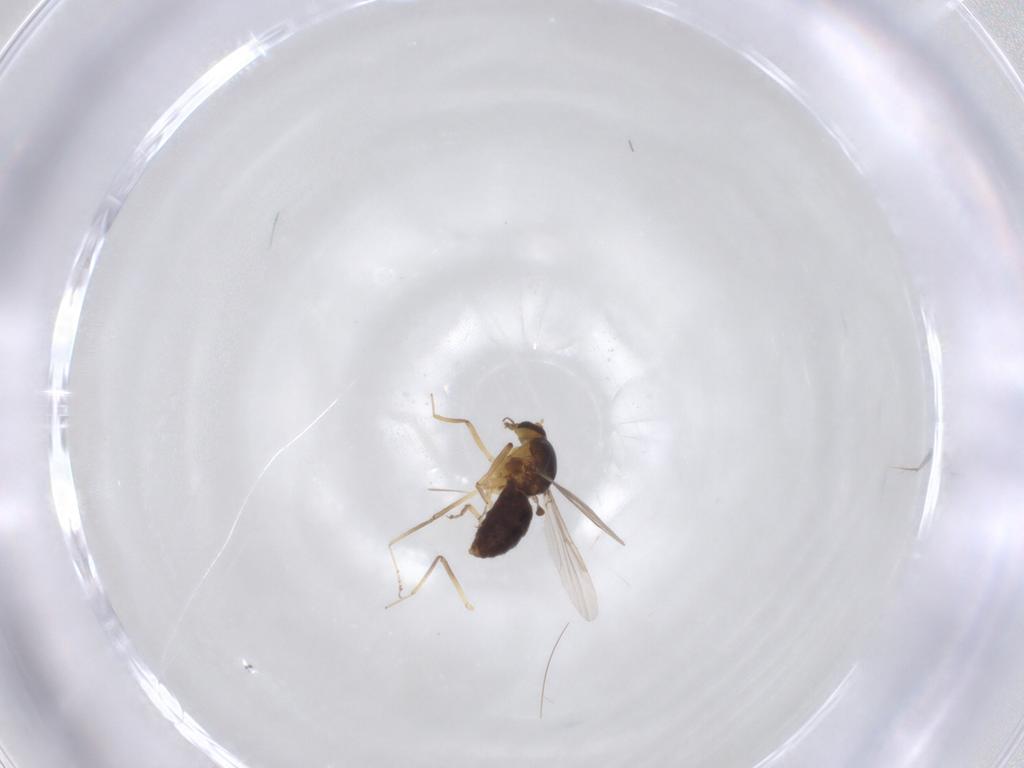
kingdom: Animalia
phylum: Arthropoda
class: Insecta
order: Diptera
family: Ceratopogonidae
